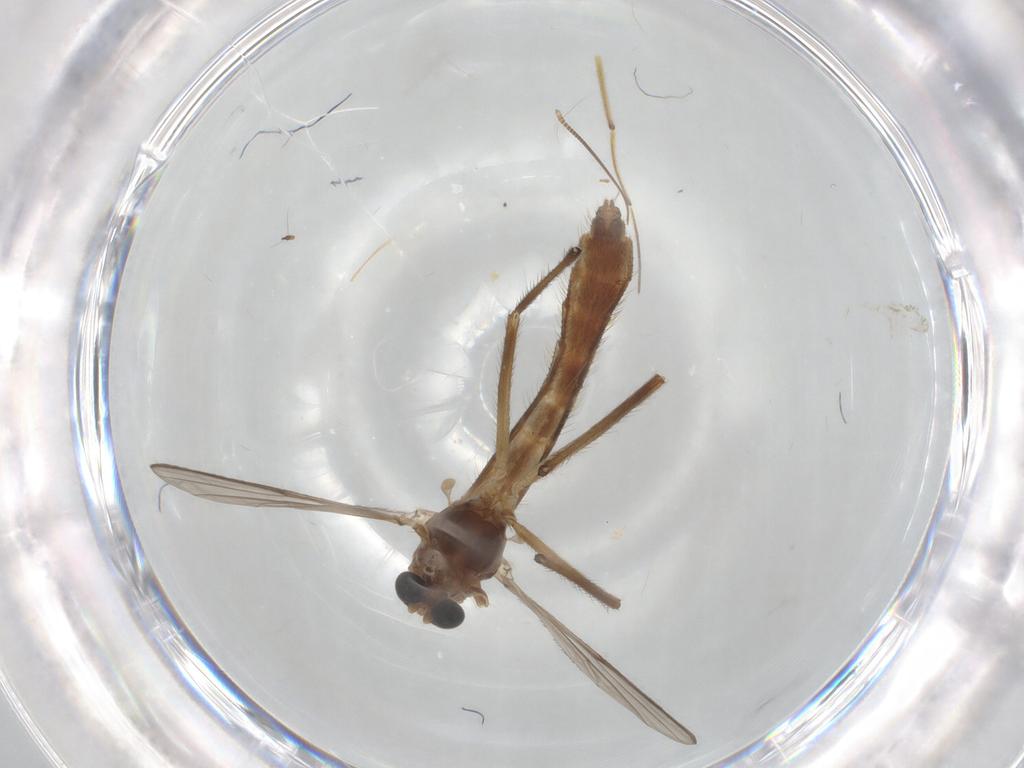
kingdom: Animalia
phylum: Arthropoda
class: Insecta
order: Diptera
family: Chironomidae
